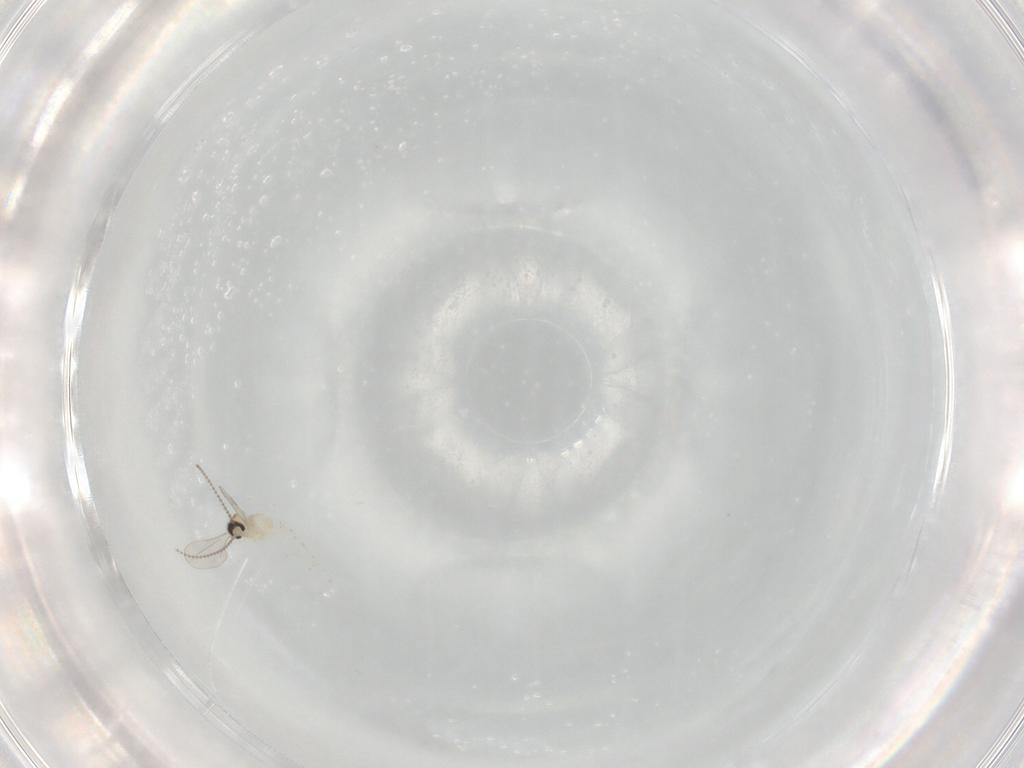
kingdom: Animalia
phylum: Arthropoda
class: Insecta
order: Diptera
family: Cecidomyiidae
